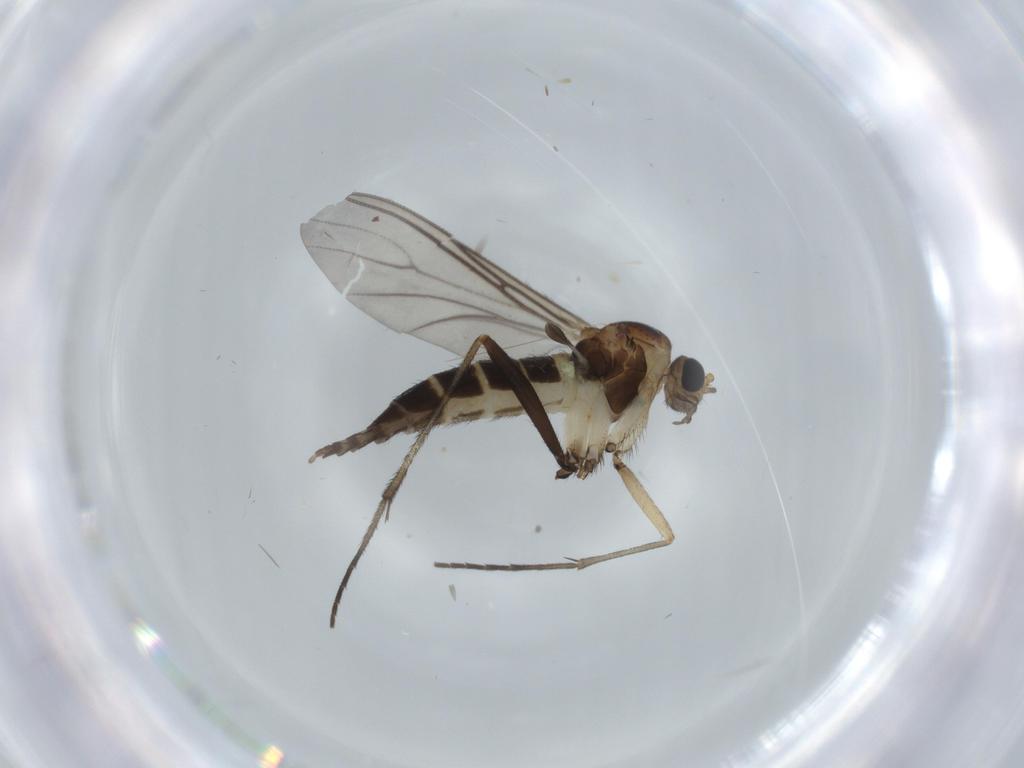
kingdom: Animalia
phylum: Arthropoda
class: Insecta
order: Diptera
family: Sciaridae
